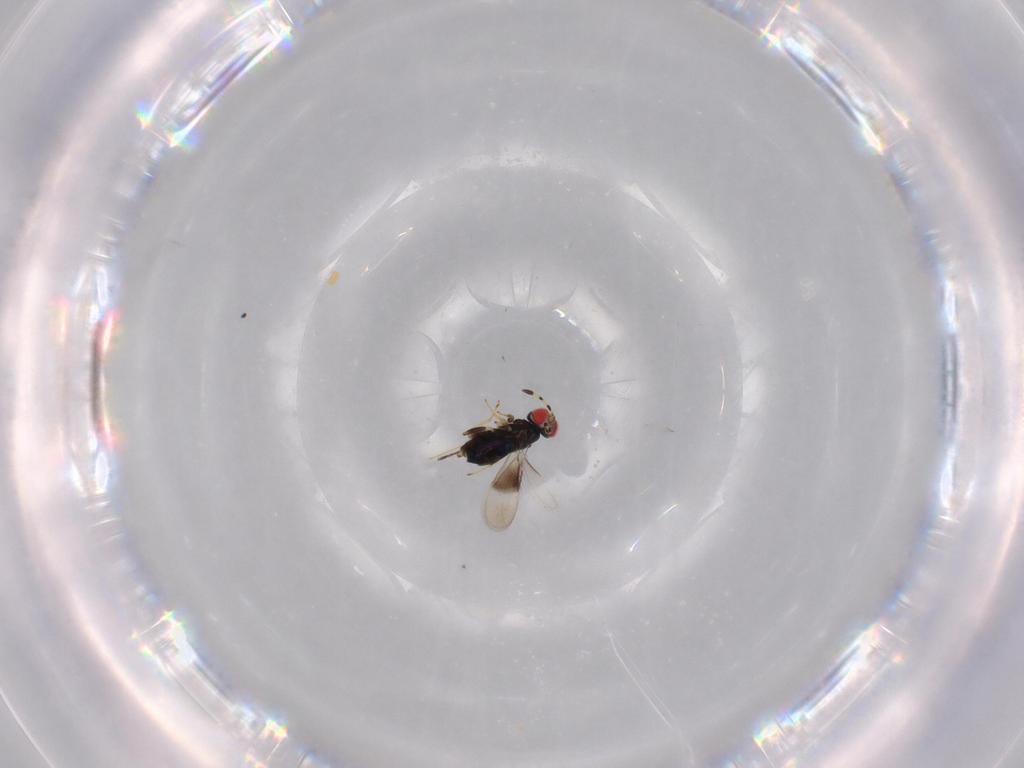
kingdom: Animalia
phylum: Arthropoda
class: Insecta
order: Hymenoptera
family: Azotidae
